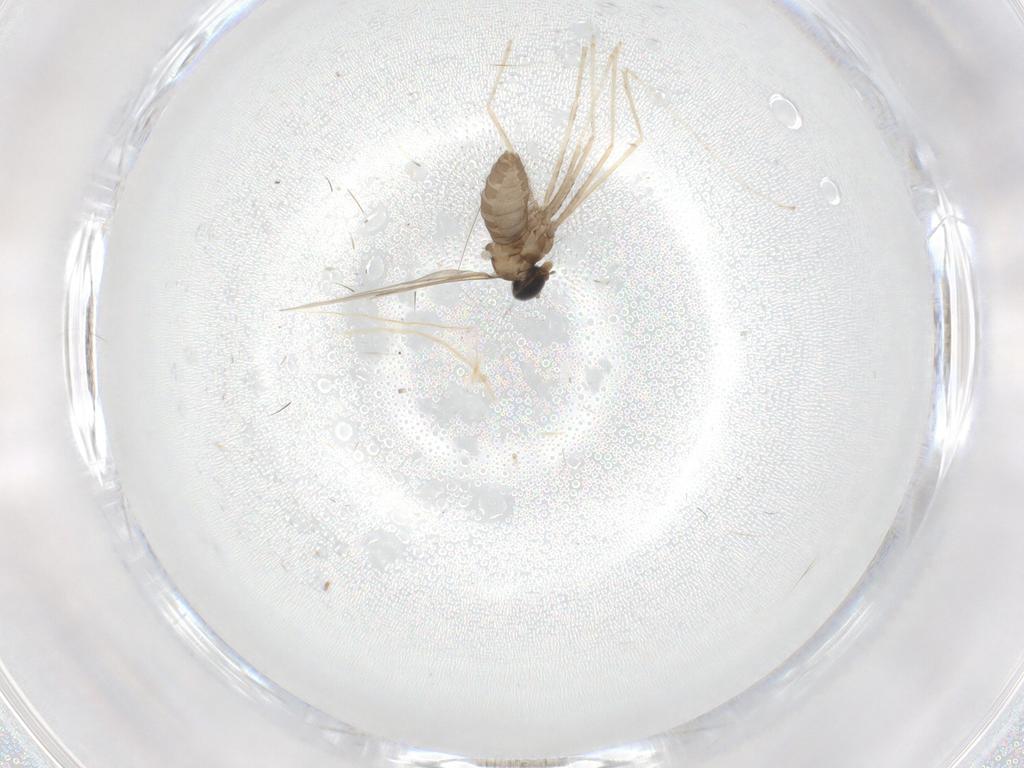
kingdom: Animalia
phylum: Arthropoda
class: Insecta
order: Diptera
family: Cecidomyiidae
